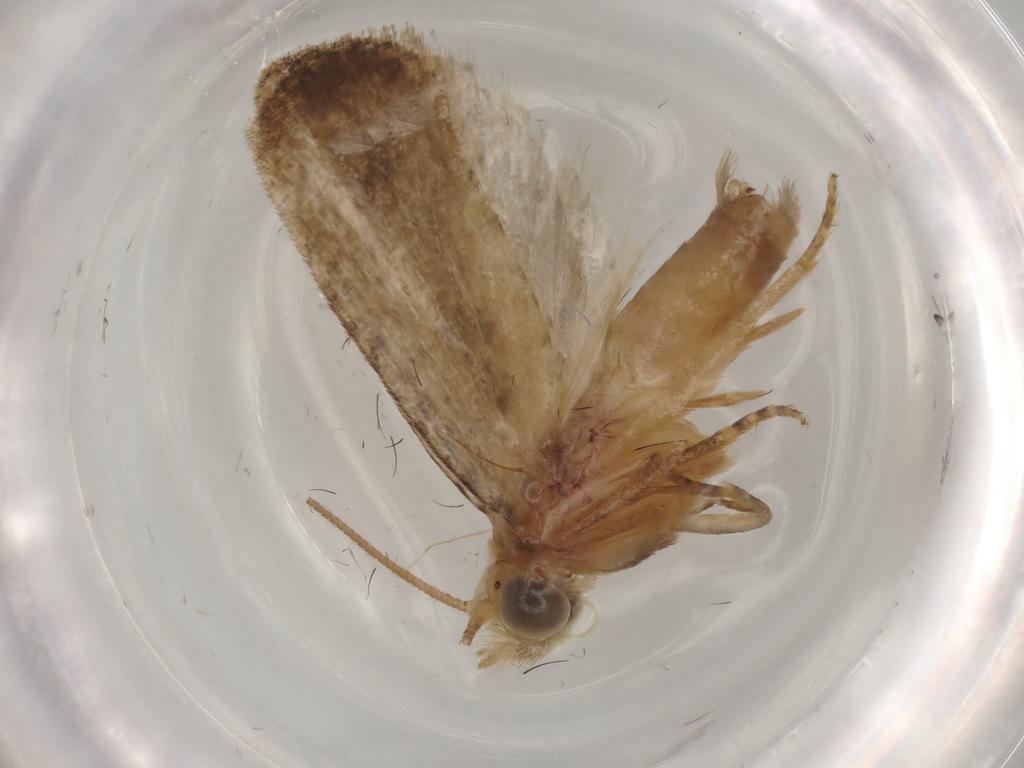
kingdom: Animalia
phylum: Arthropoda
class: Insecta
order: Lepidoptera
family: Tortricidae
